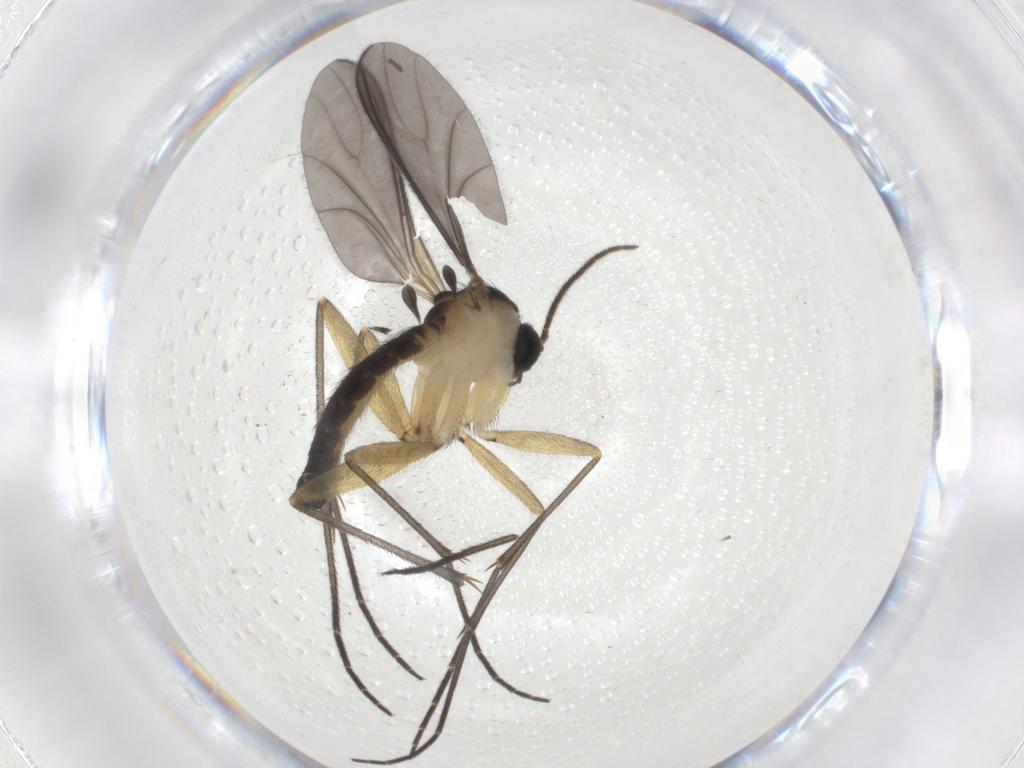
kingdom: Animalia
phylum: Arthropoda
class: Insecta
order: Diptera
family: Sciaridae
